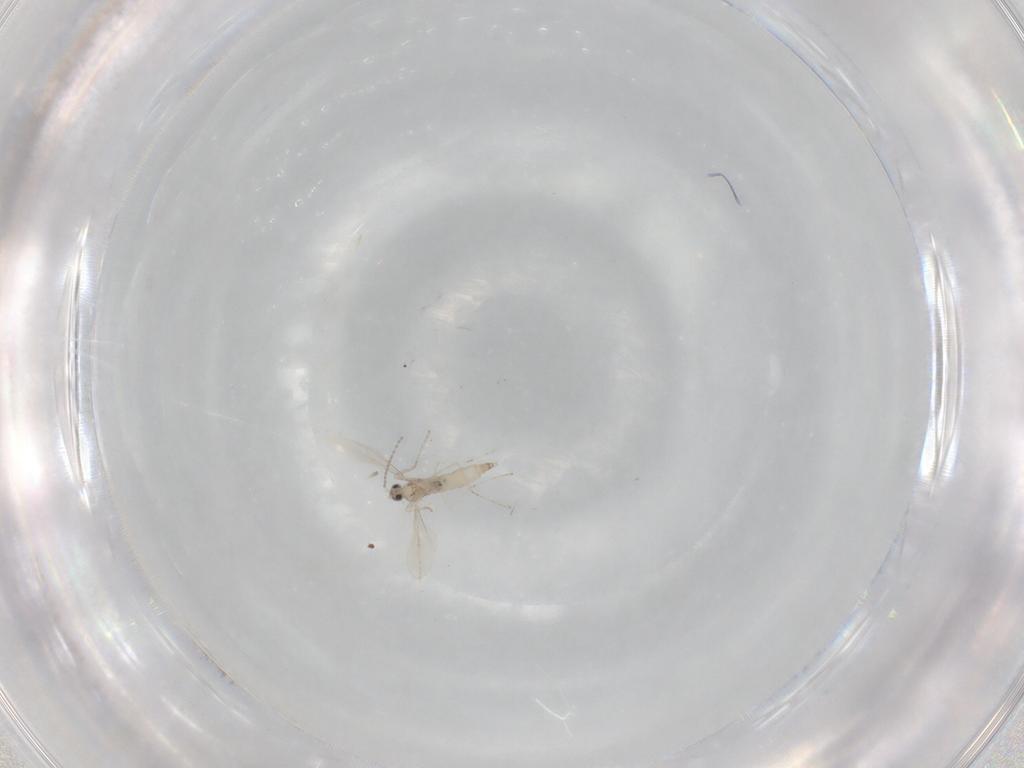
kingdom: Animalia
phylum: Arthropoda
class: Insecta
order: Diptera
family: Cecidomyiidae
